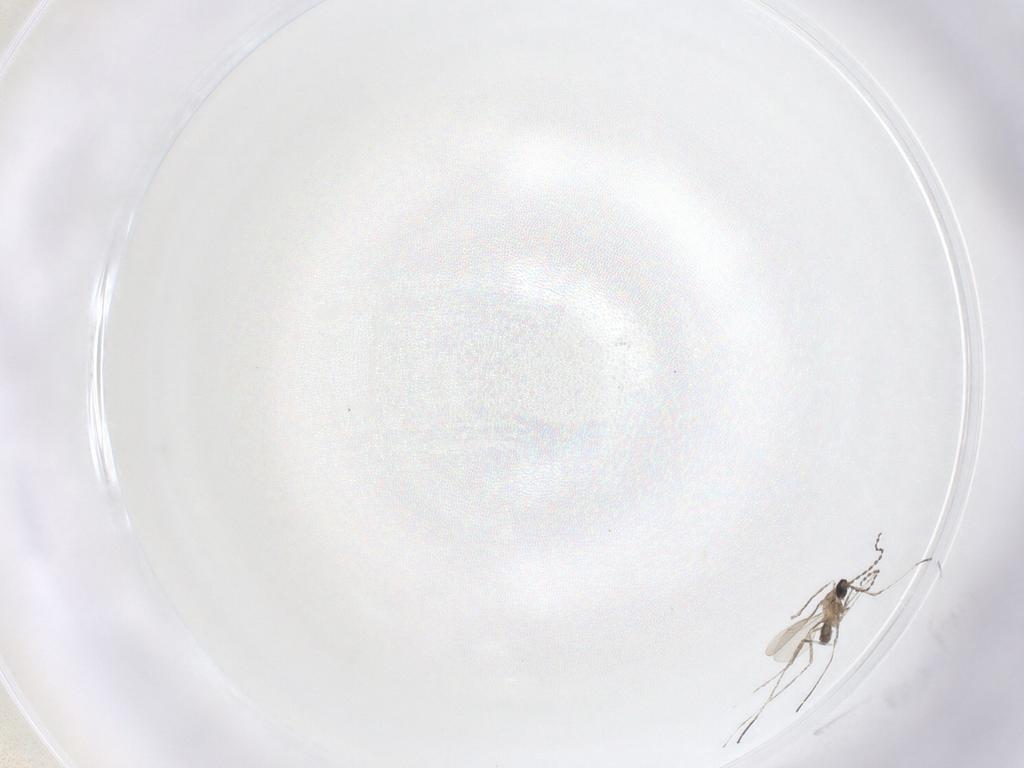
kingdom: Animalia
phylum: Arthropoda
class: Insecta
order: Diptera
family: Cecidomyiidae
